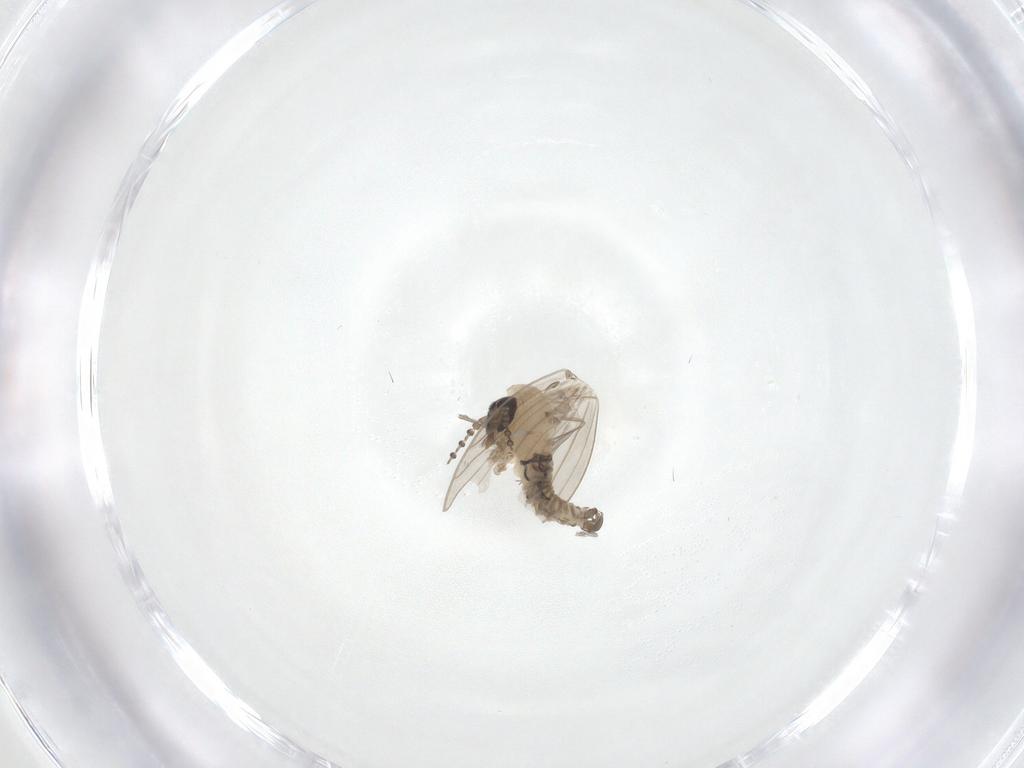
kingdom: Animalia
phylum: Arthropoda
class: Insecta
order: Diptera
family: Psychodidae
